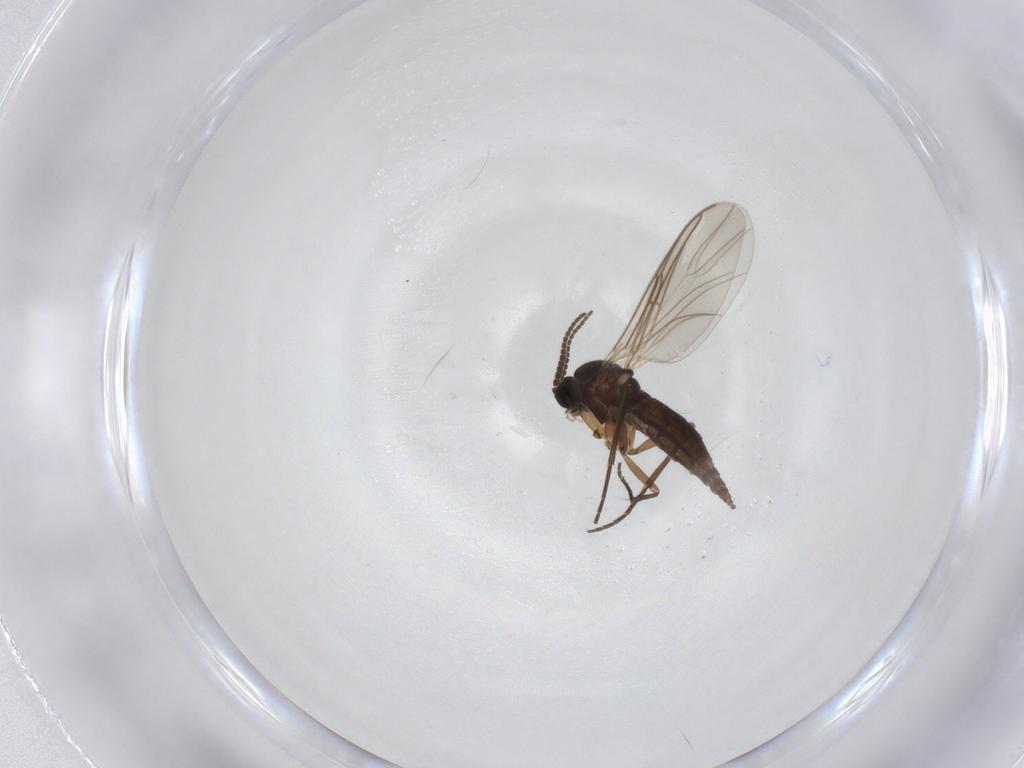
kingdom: Animalia
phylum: Arthropoda
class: Insecta
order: Diptera
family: Sciaridae
